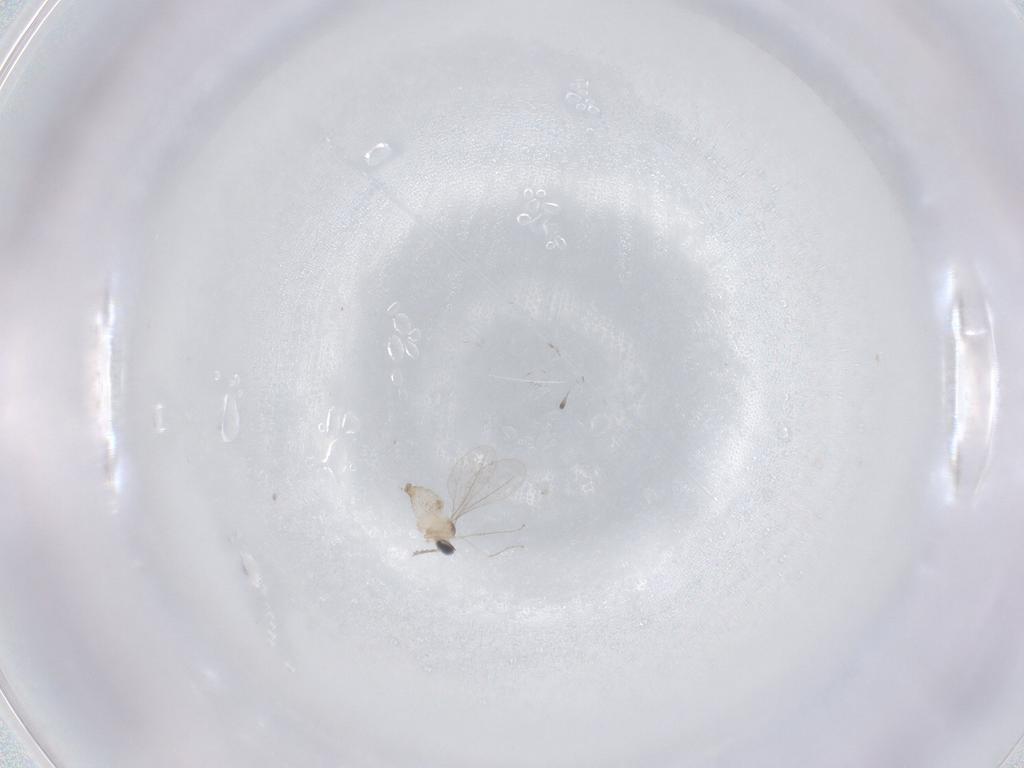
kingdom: Animalia
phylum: Arthropoda
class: Insecta
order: Diptera
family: Cecidomyiidae
